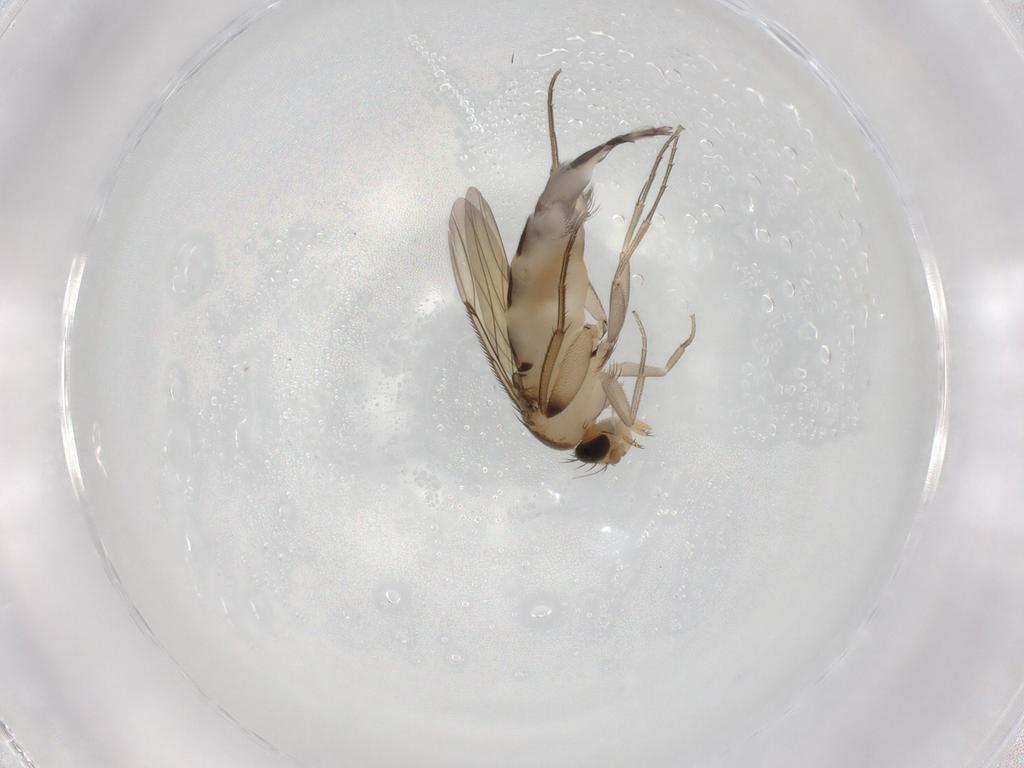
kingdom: Animalia
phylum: Arthropoda
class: Insecta
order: Diptera
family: Phoridae
